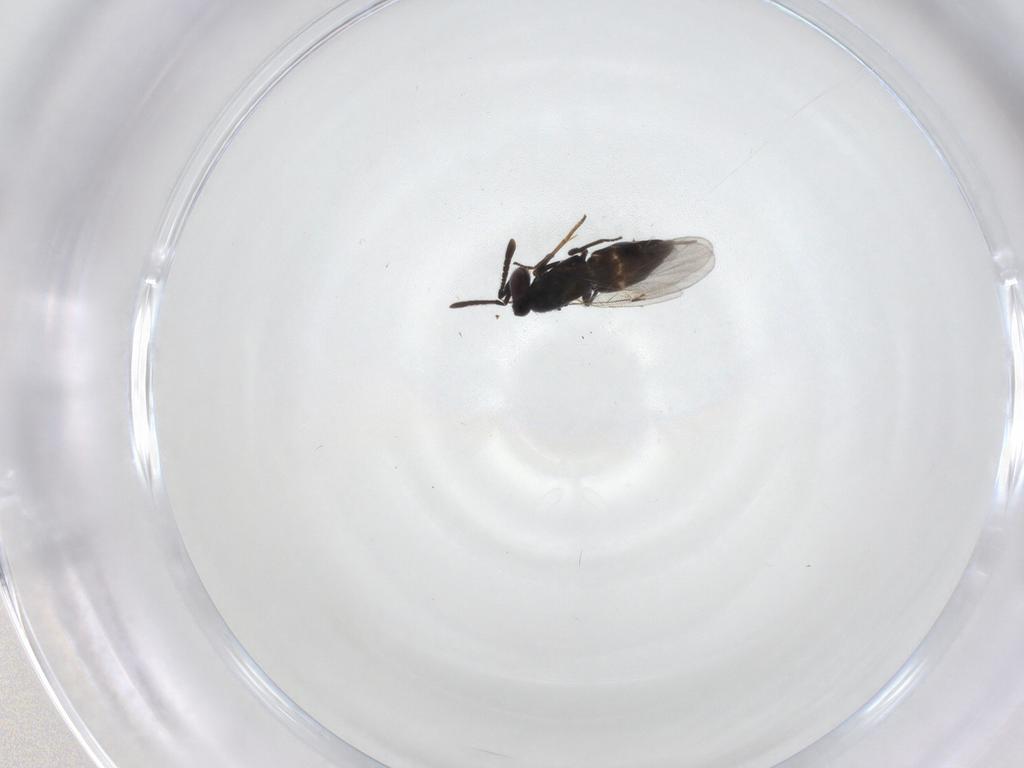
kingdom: Animalia
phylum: Arthropoda
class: Insecta
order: Hymenoptera
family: Encyrtidae
